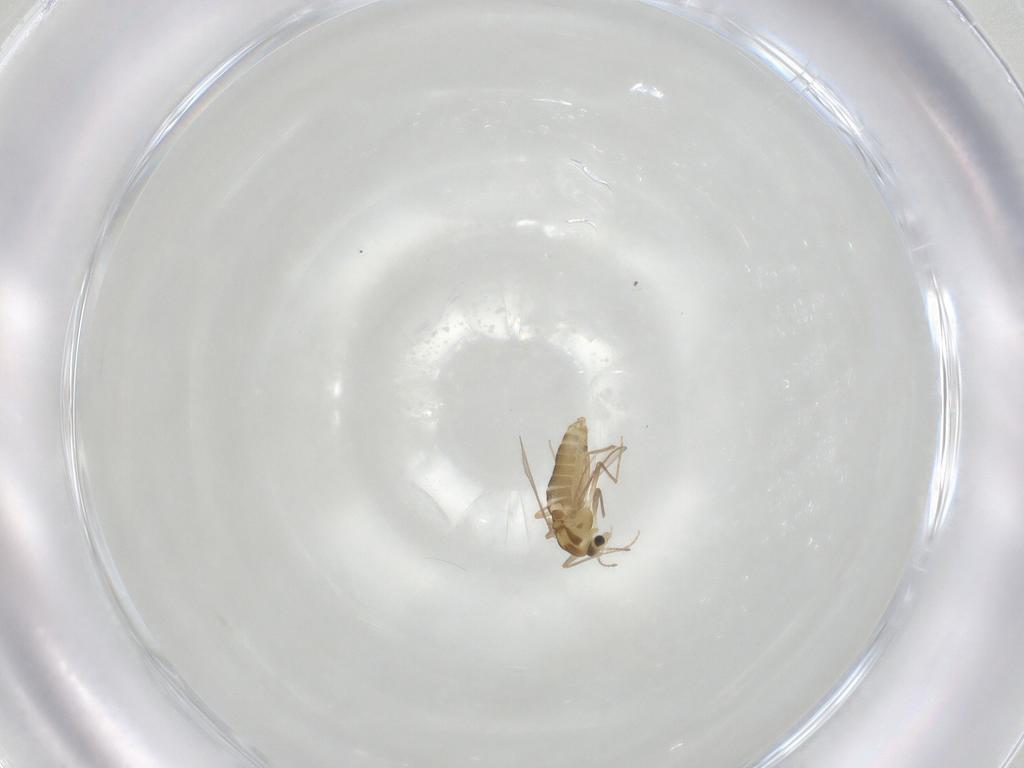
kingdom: Animalia
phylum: Arthropoda
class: Insecta
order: Diptera
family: Chironomidae
